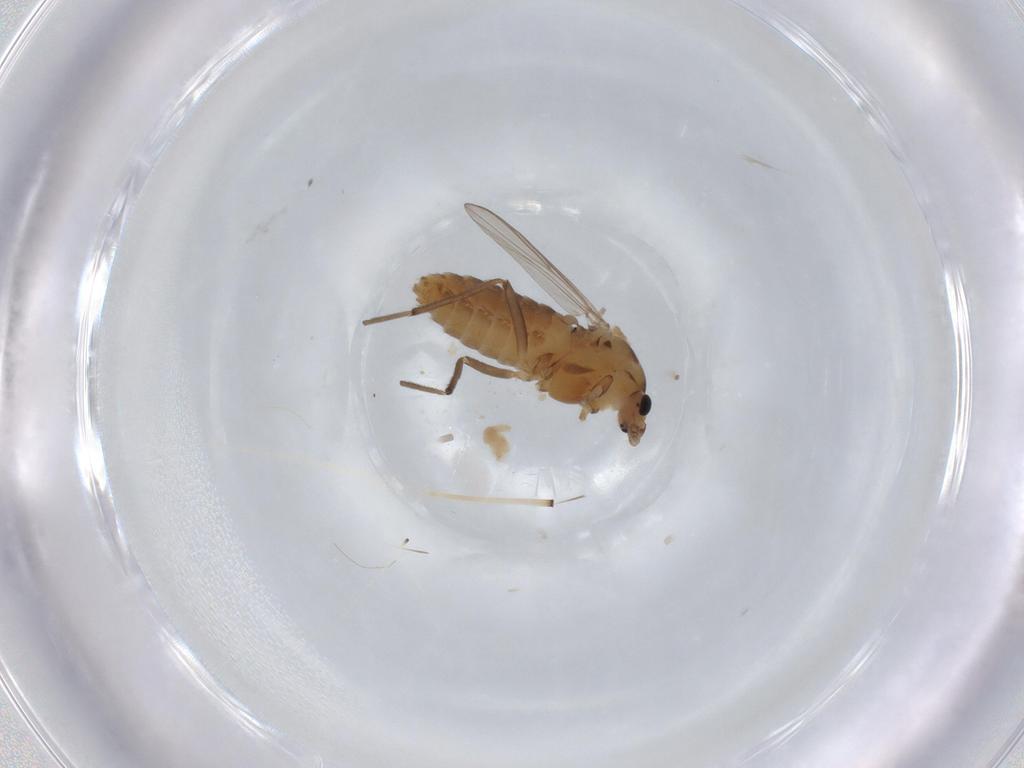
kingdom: Animalia
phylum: Arthropoda
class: Insecta
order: Diptera
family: Chironomidae
